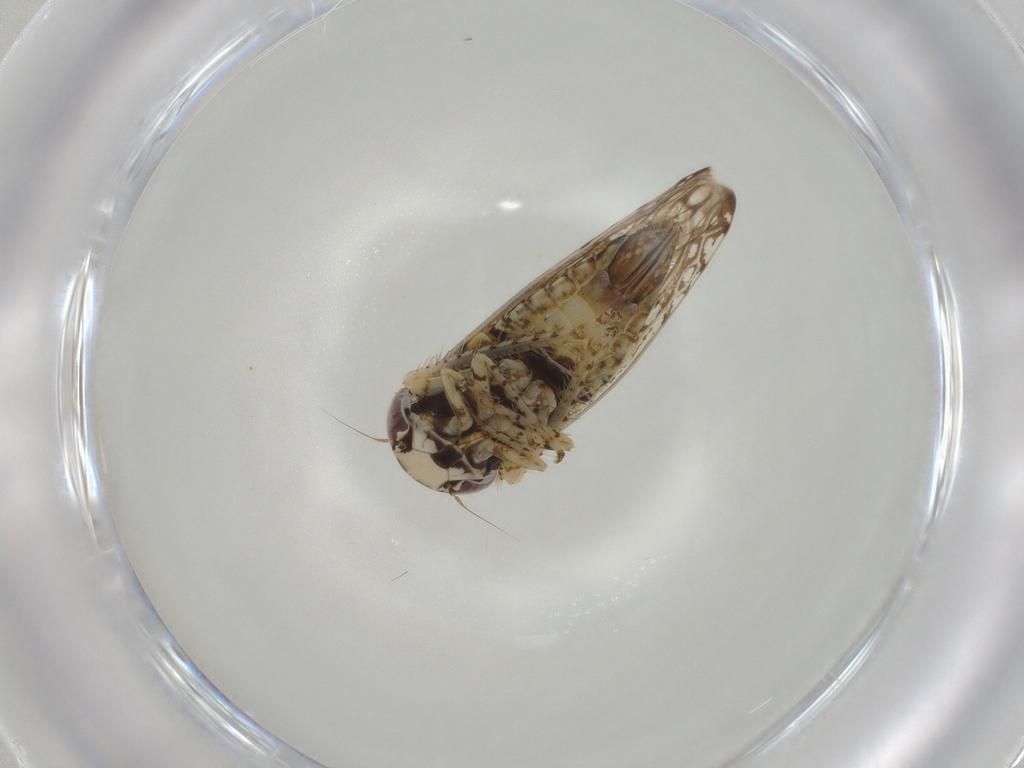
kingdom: Animalia
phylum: Arthropoda
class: Insecta
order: Hemiptera
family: Cicadellidae
